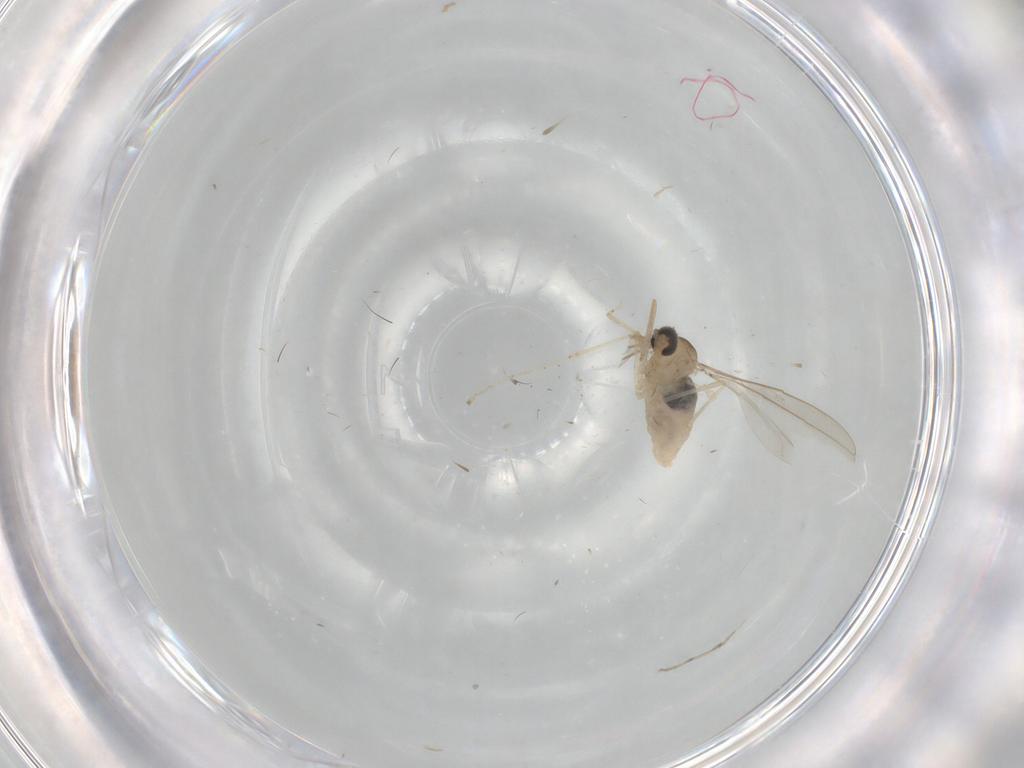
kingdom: Animalia
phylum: Arthropoda
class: Insecta
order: Diptera
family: Cecidomyiidae
